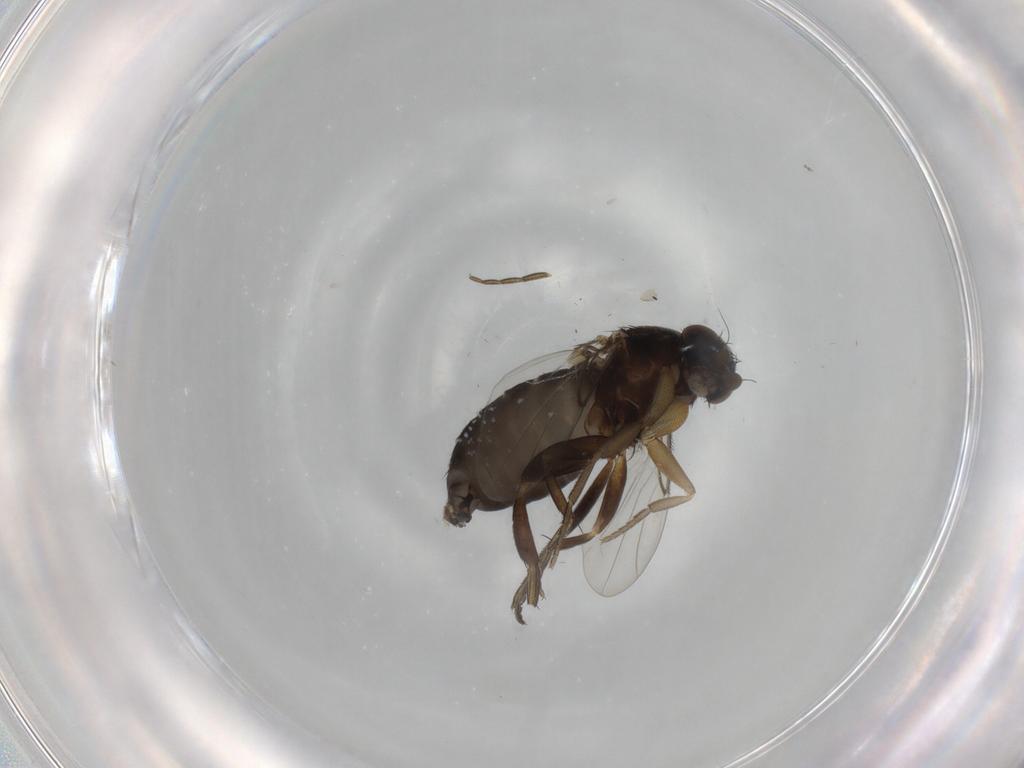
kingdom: Animalia
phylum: Arthropoda
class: Insecta
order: Diptera
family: Phoridae
